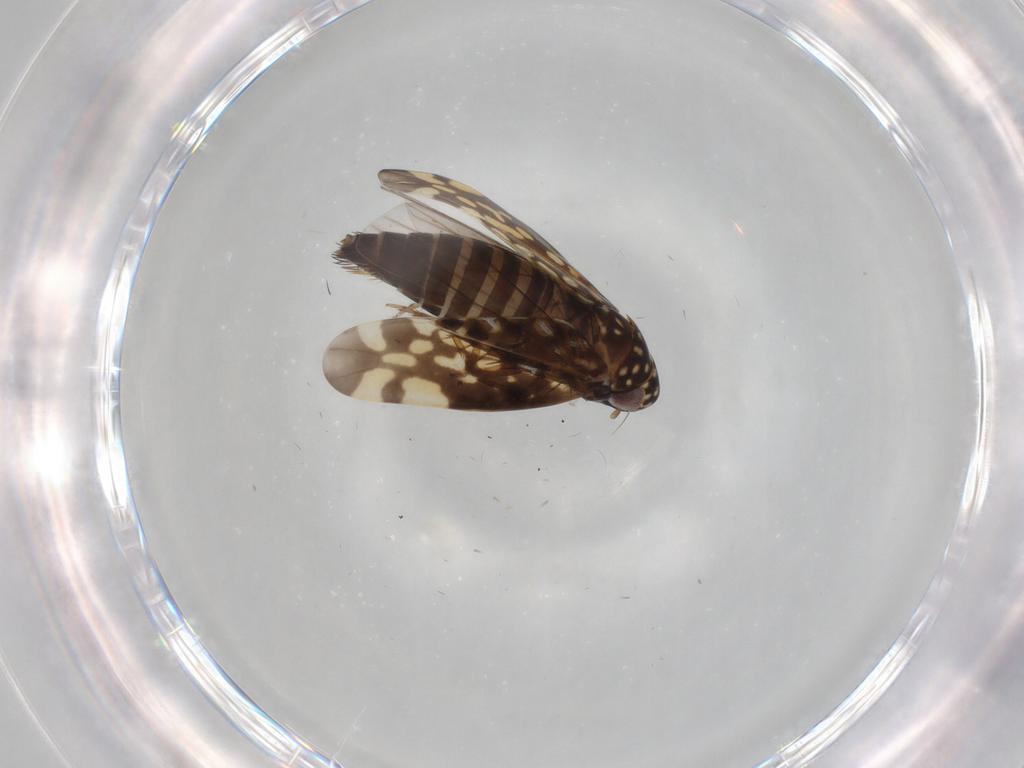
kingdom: Animalia
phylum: Arthropoda
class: Insecta
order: Hemiptera
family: Cicadellidae
